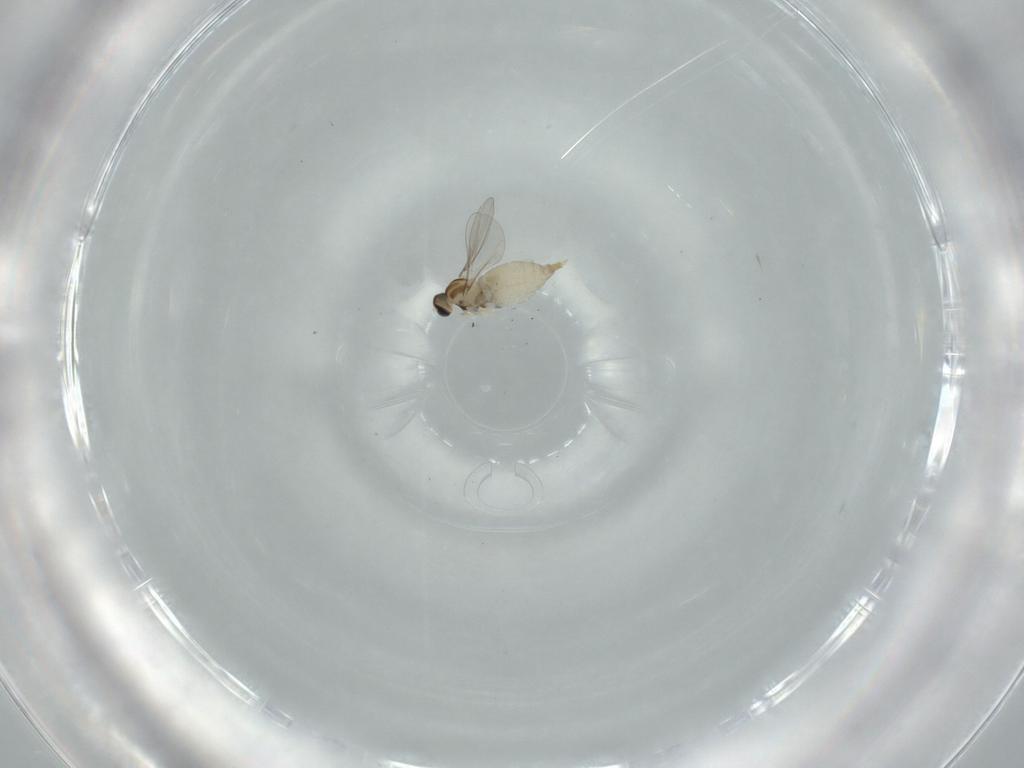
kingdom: Animalia
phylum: Arthropoda
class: Insecta
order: Diptera
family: Cecidomyiidae
